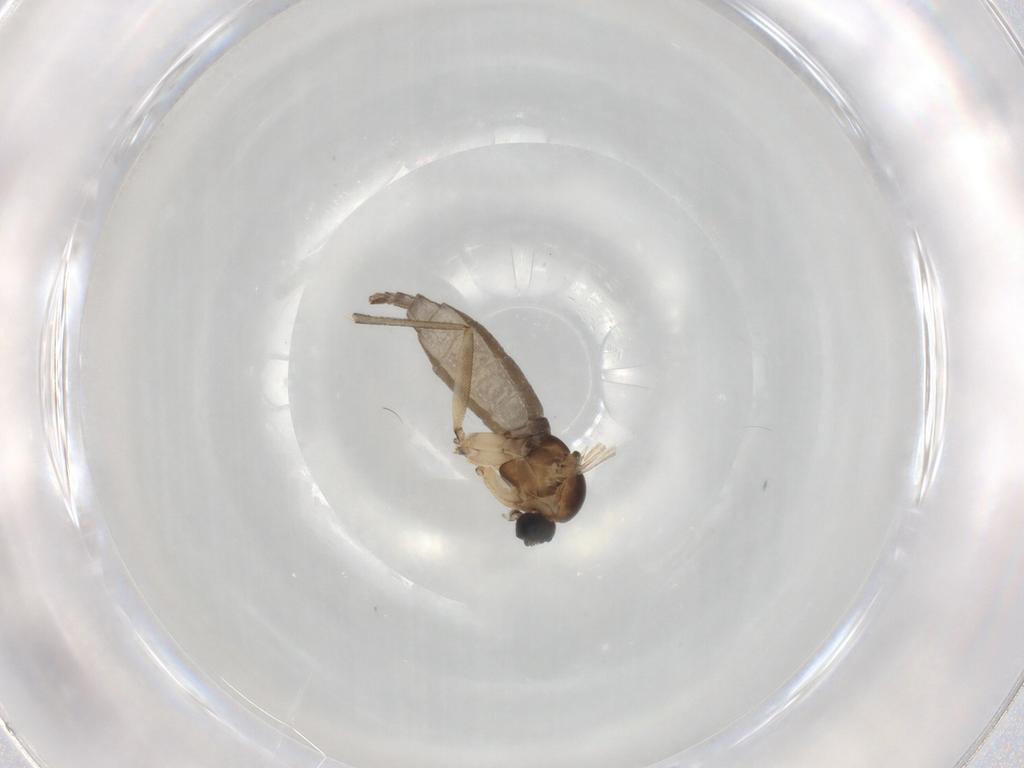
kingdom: Animalia
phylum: Arthropoda
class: Insecta
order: Diptera
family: Sciaridae
